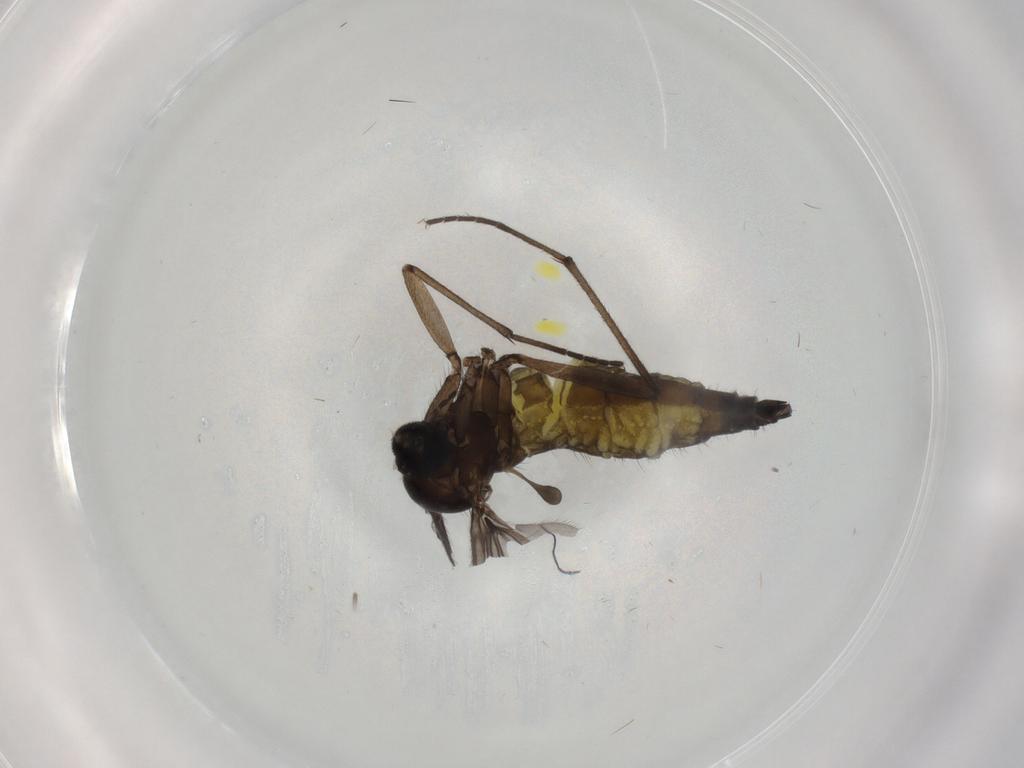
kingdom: Animalia
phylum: Arthropoda
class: Insecta
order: Diptera
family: Sciaridae
